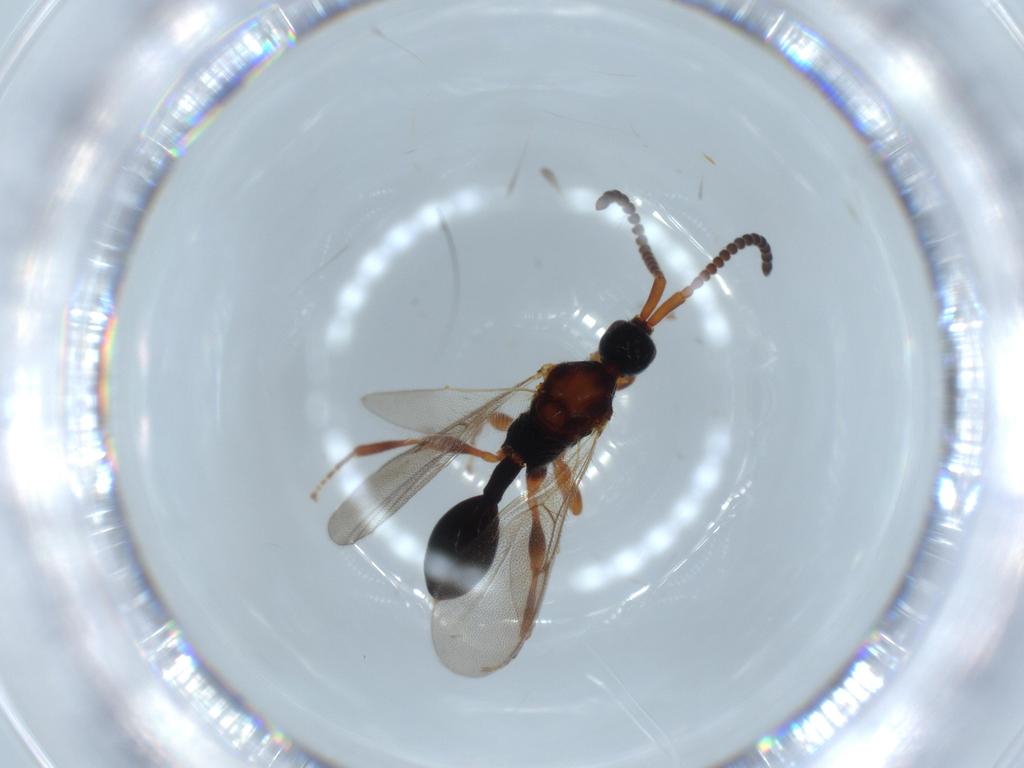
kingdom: Animalia
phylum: Arthropoda
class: Insecta
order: Hymenoptera
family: Diapriidae
